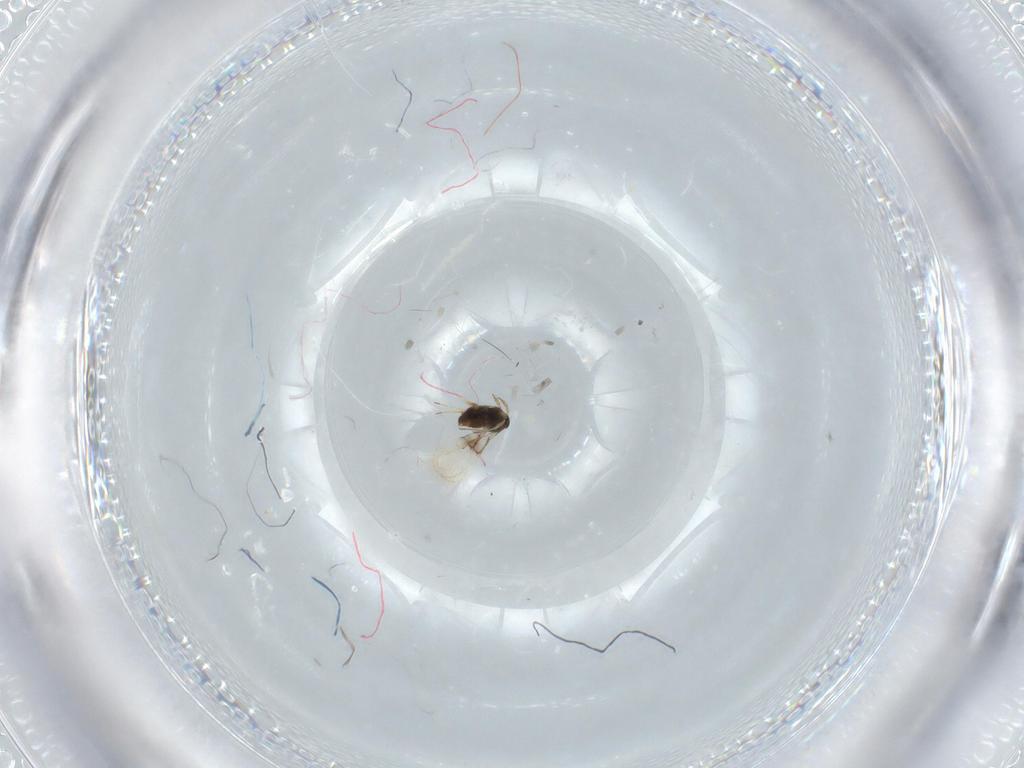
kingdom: Animalia
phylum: Arthropoda
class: Insecta
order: Hymenoptera
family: Trichogrammatidae
